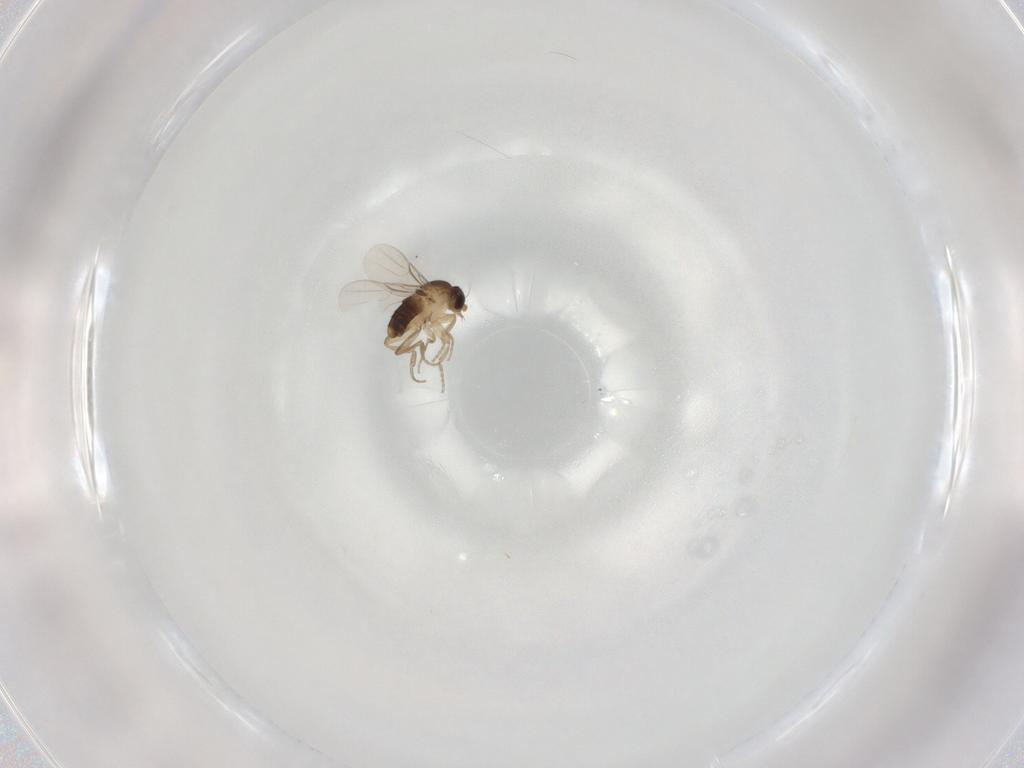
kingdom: Animalia
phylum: Arthropoda
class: Insecta
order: Diptera
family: Phoridae
